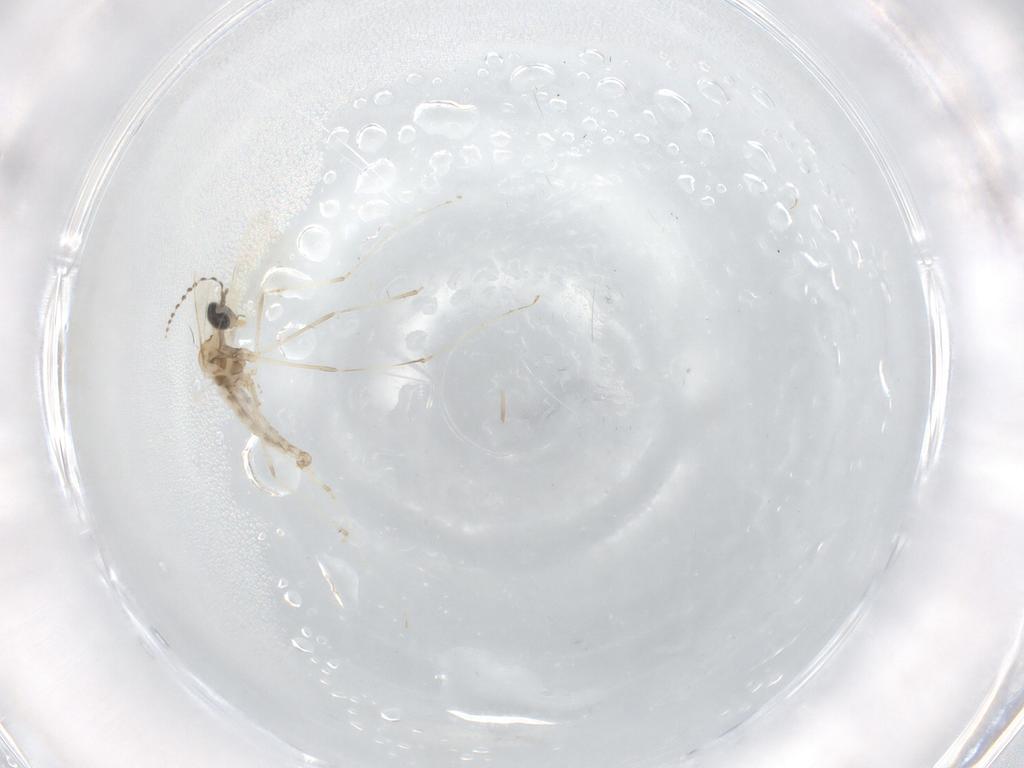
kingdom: Animalia
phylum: Arthropoda
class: Insecta
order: Diptera
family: Cecidomyiidae
